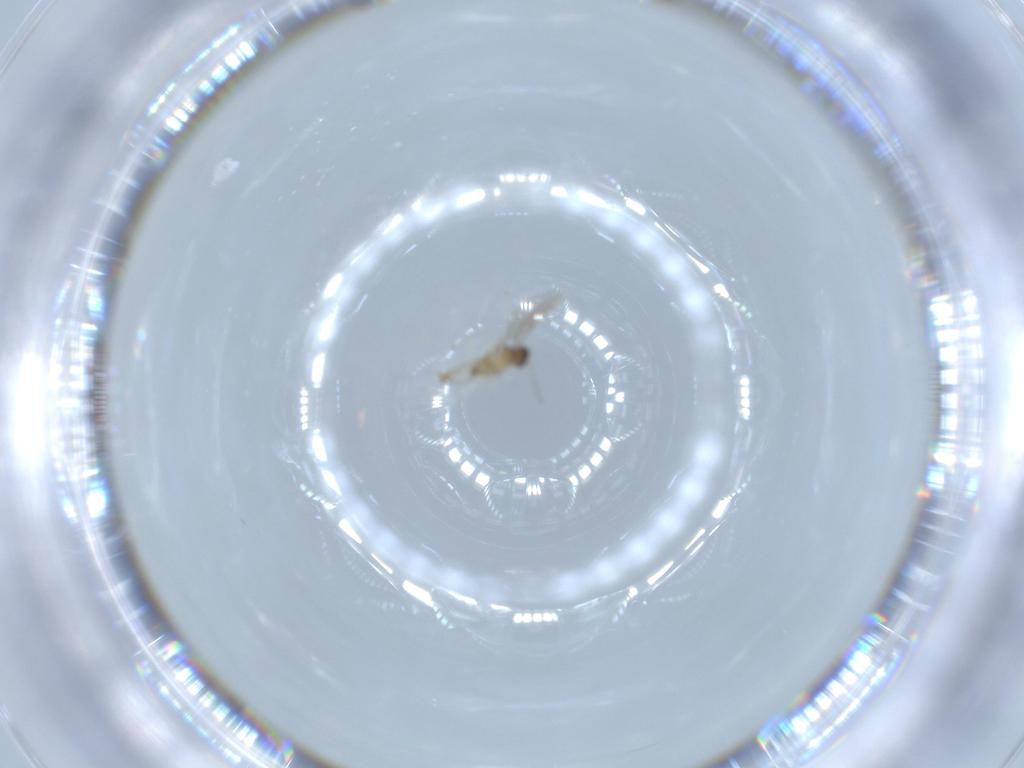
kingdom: Animalia
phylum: Arthropoda
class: Insecta
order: Diptera
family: Cecidomyiidae
